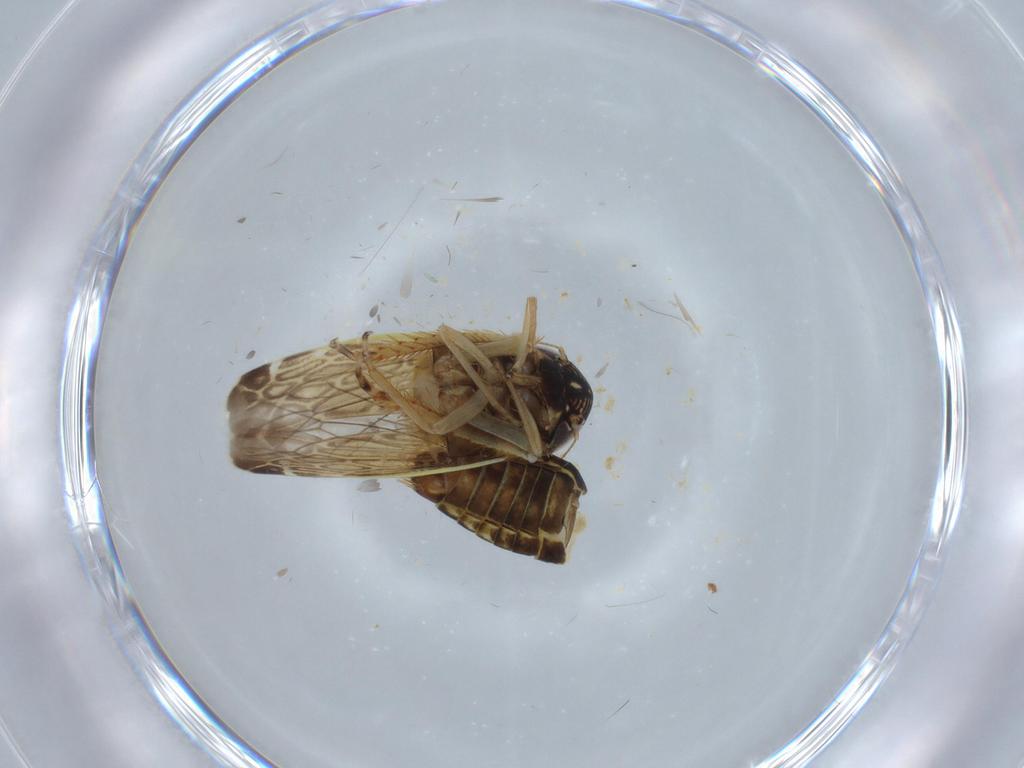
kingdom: Animalia
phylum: Arthropoda
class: Insecta
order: Hemiptera
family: Cicadellidae
